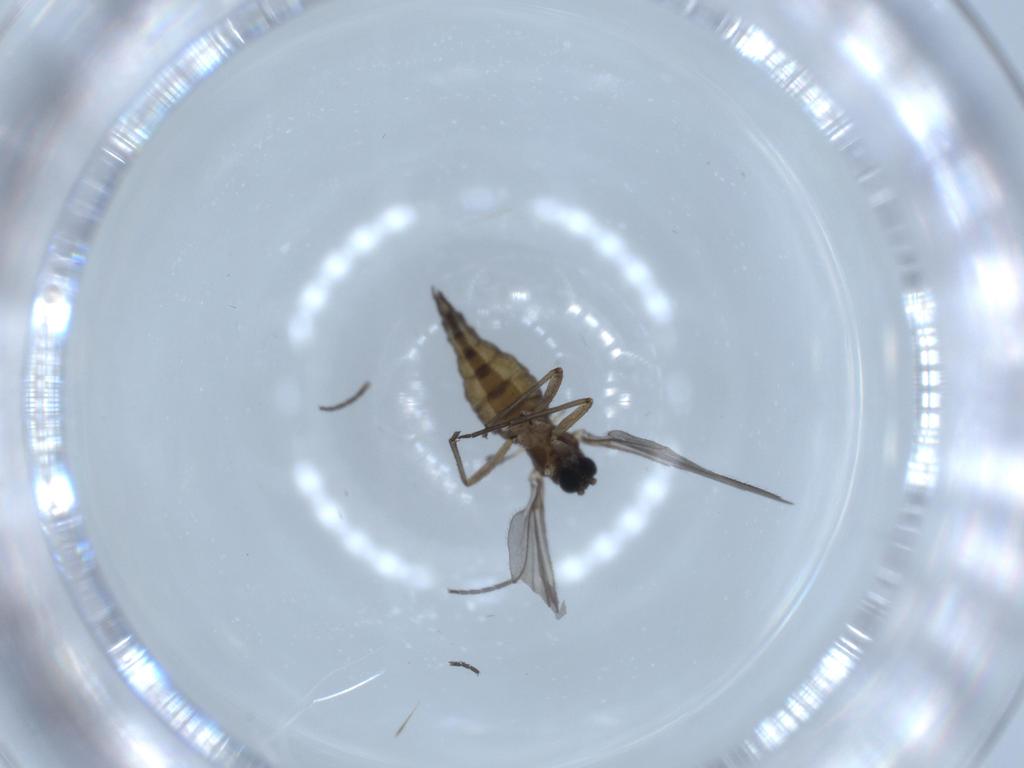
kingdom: Animalia
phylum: Arthropoda
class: Insecta
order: Diptera
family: Sciaridae
